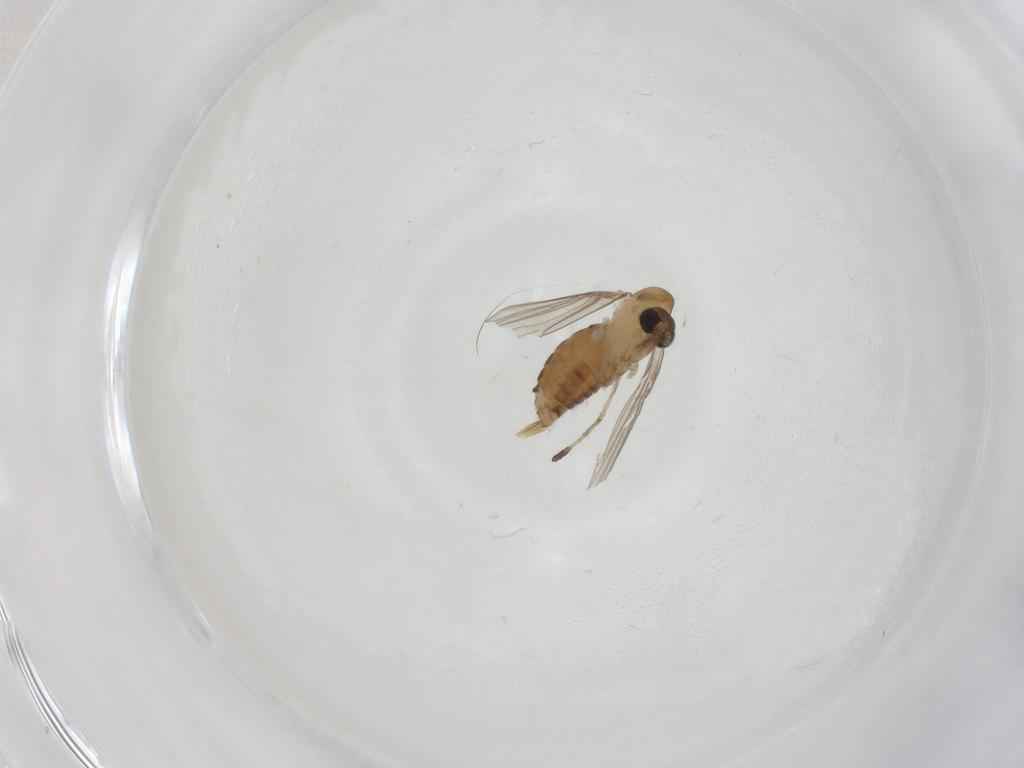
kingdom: Animalia
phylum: Arthropoda
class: Insecta
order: Diptera
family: Psychodidae
